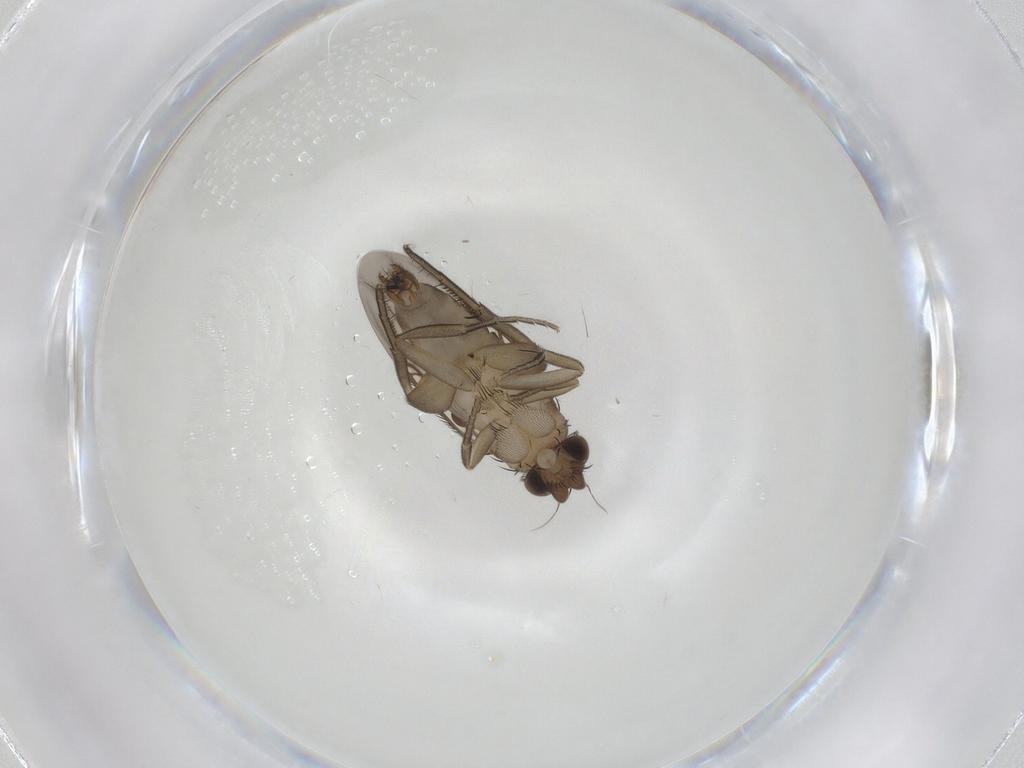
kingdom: Animalia
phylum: Arthropoda
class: Insecta
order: Diptera
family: Phoridae
